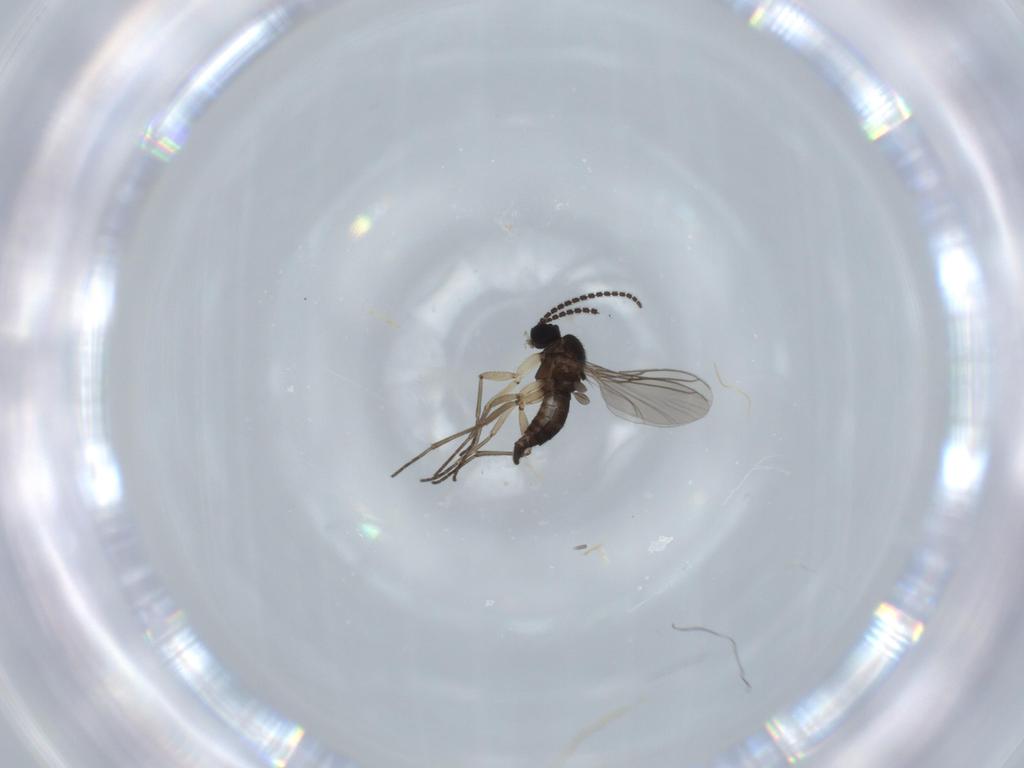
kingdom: Animalia
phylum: Arthropoda
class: Insecta
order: Diptera
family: Sciaridae
